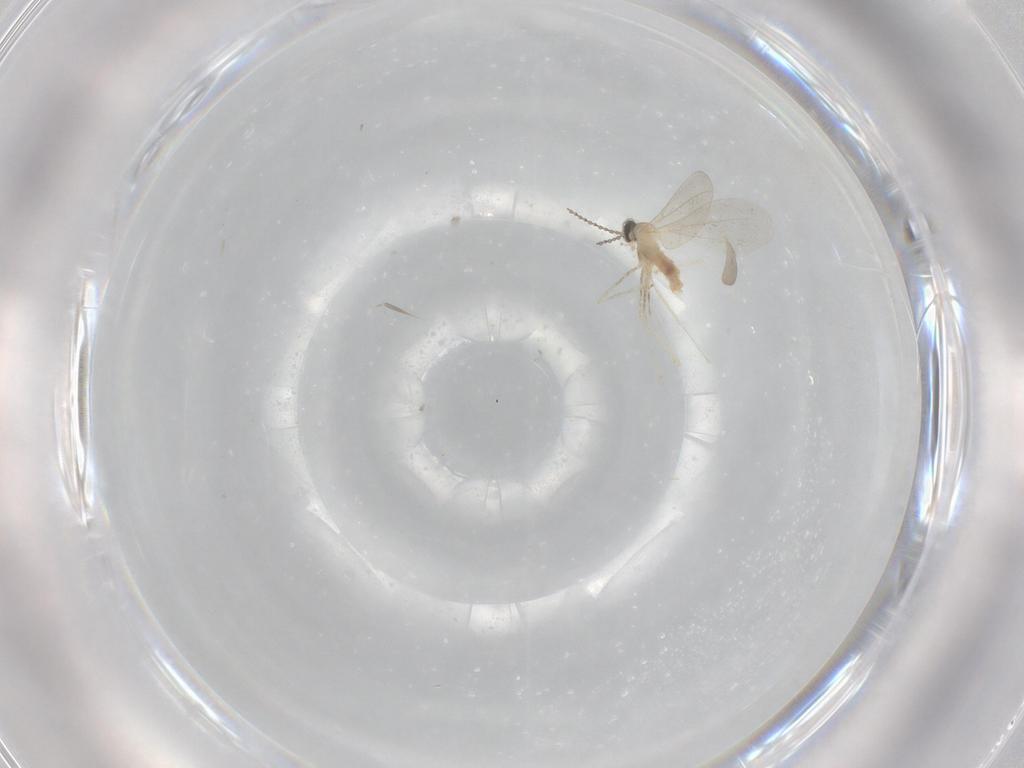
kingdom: Animalia
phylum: Arthropoda
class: Insecta
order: Diptera
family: Cecidomyiidae
